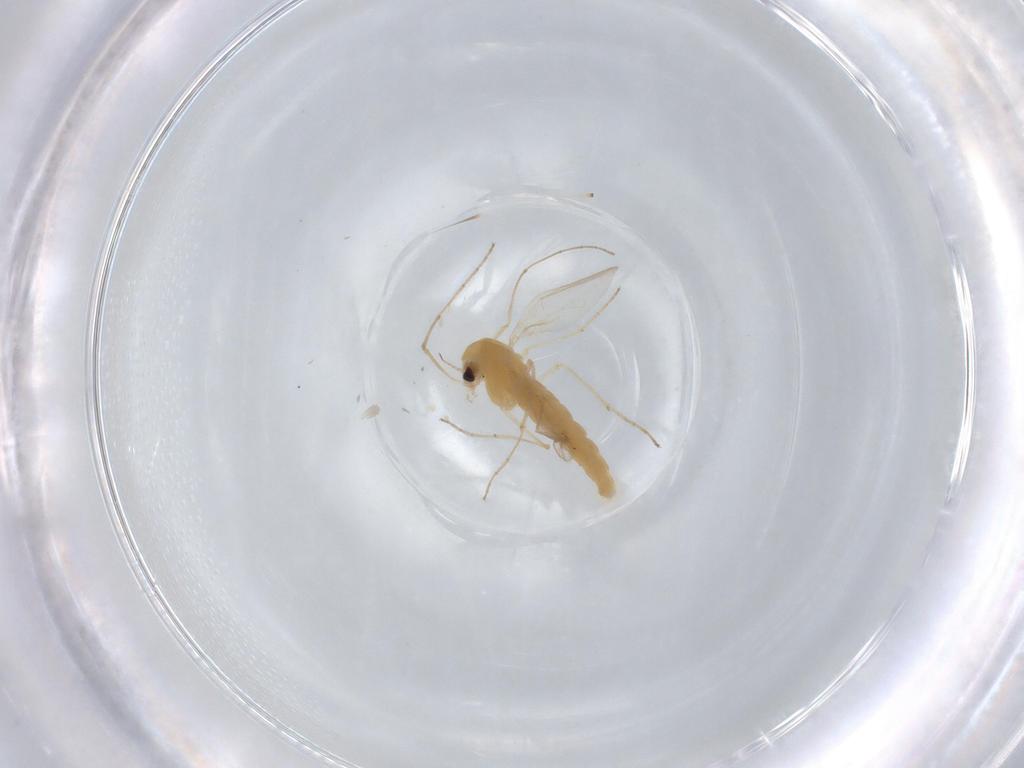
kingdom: Animalia
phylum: Arthropoda
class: Insecta
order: Diptera
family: Chironomidae
